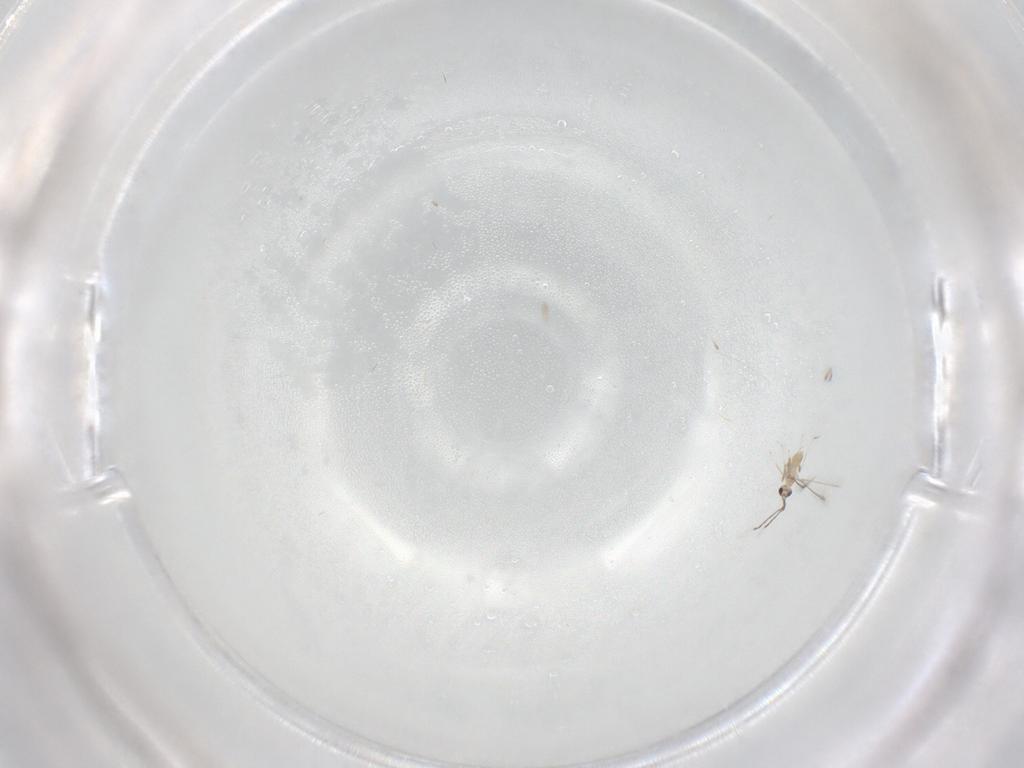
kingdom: Animalia
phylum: Arthropoda
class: Insecta
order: Hymenoptera
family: Mymaridae
